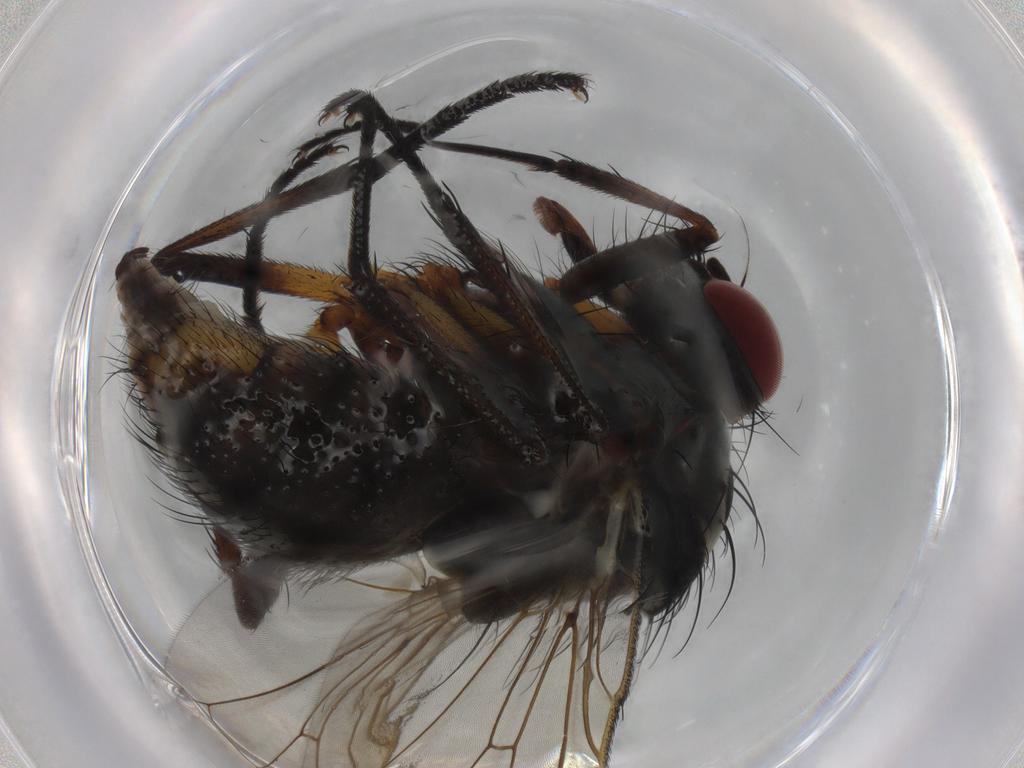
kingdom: Animalia
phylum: Arthropoda
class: Insecta
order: Diptera
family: Anthomyiidae
